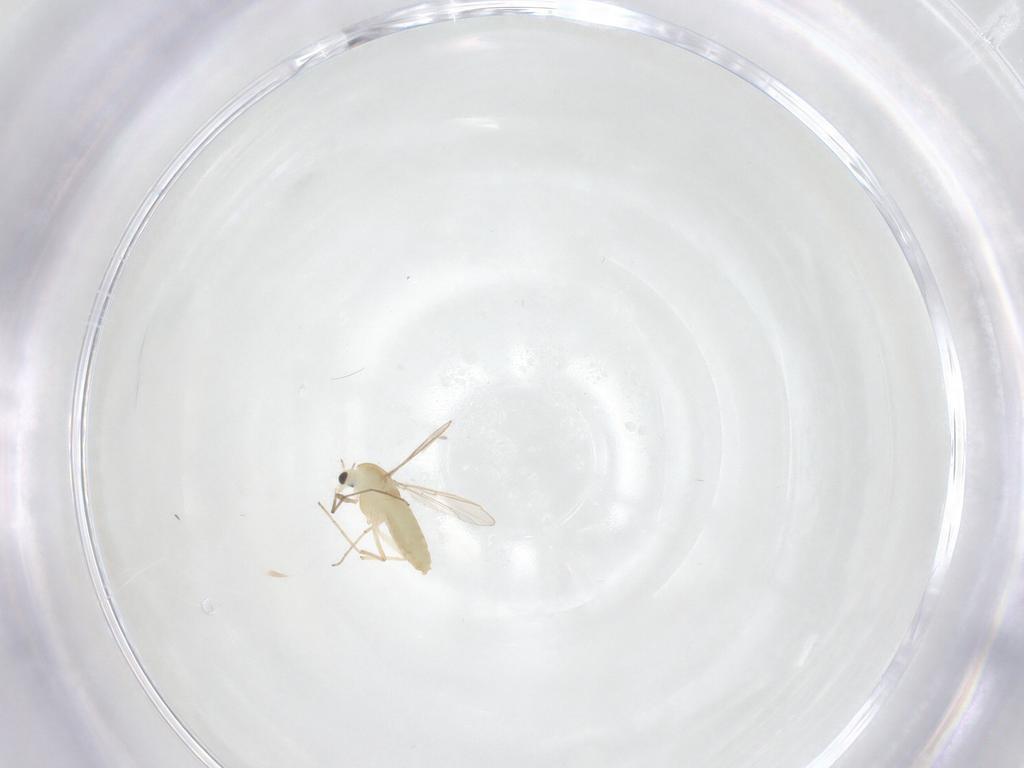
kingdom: Animalia
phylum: Arthropoda
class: Insecta
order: Diptera
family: Chironomidae
